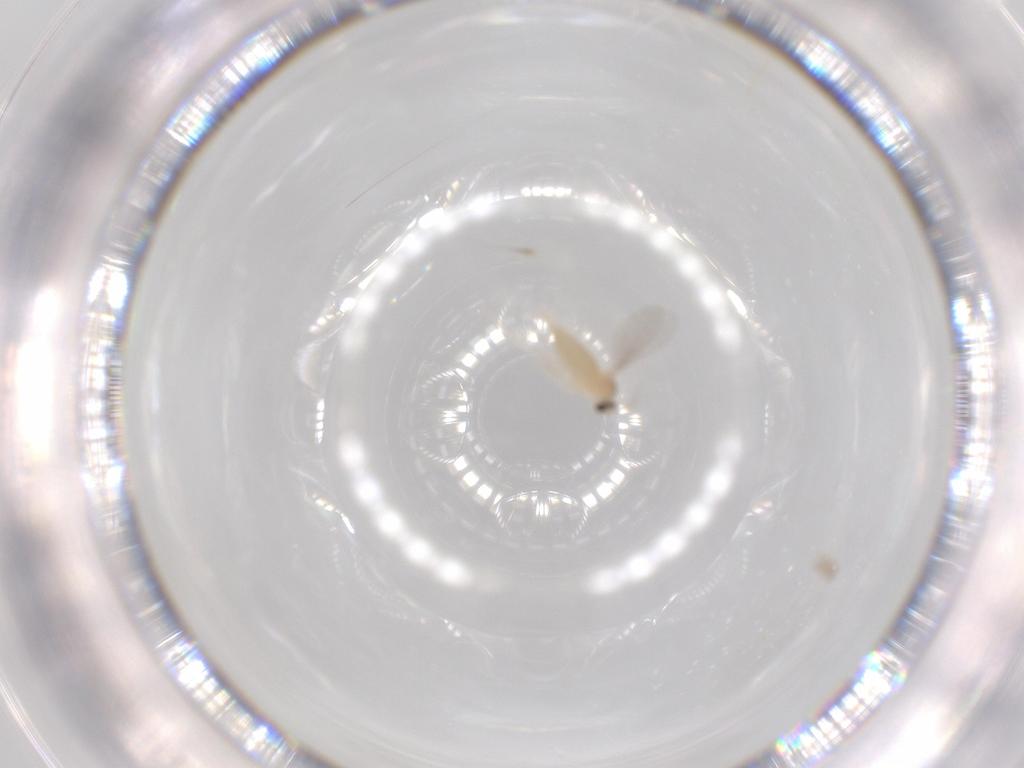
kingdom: Animalia
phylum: Arthropoda
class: Insecta
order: Diptera
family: Cecidomyiidae
